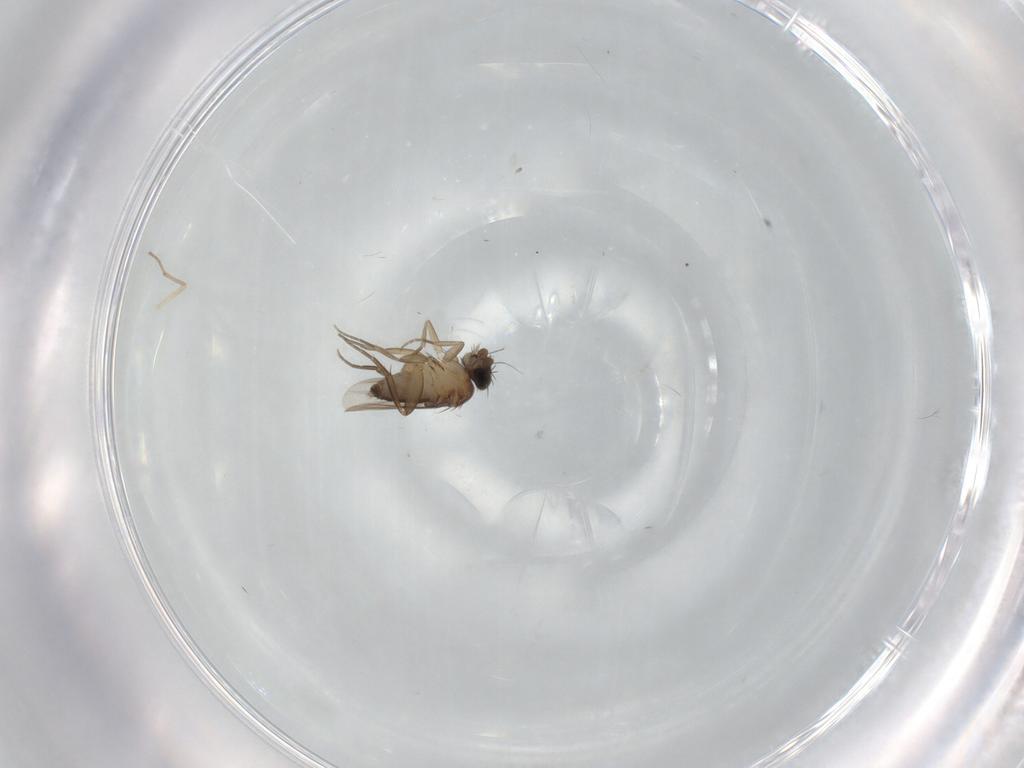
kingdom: Animalia
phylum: Arthropoda
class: Insecta
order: Diptera
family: Phoridae
